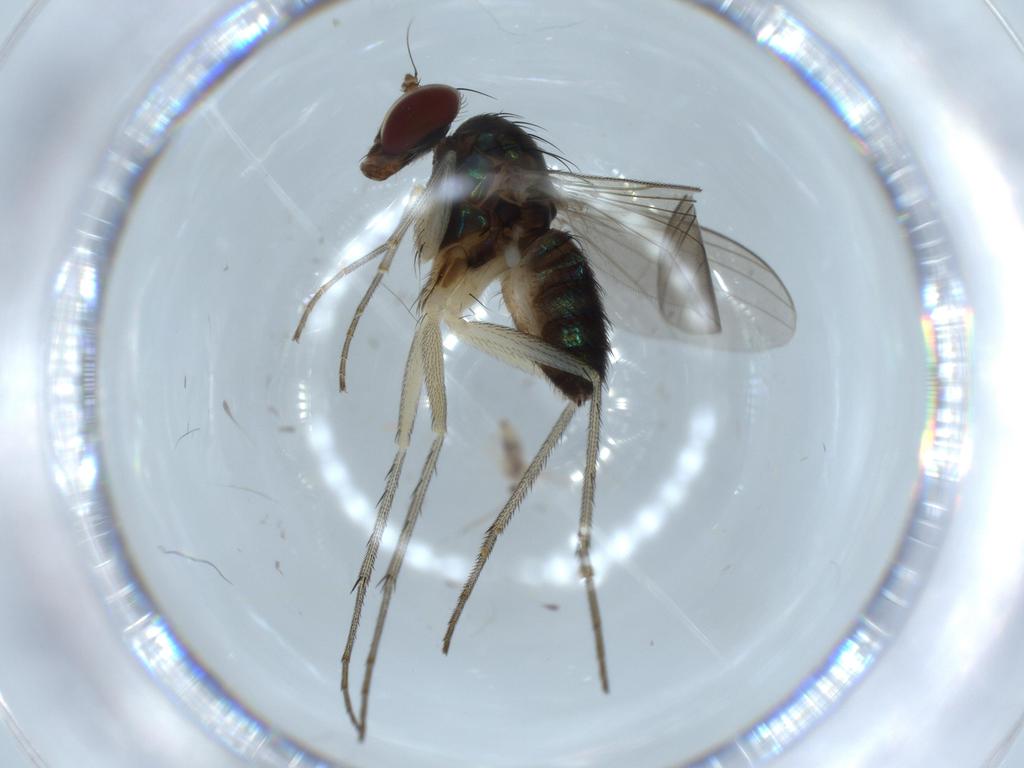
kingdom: Animalia
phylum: Arthropoda
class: Insecta
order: Diptera
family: Dolichopodidae
